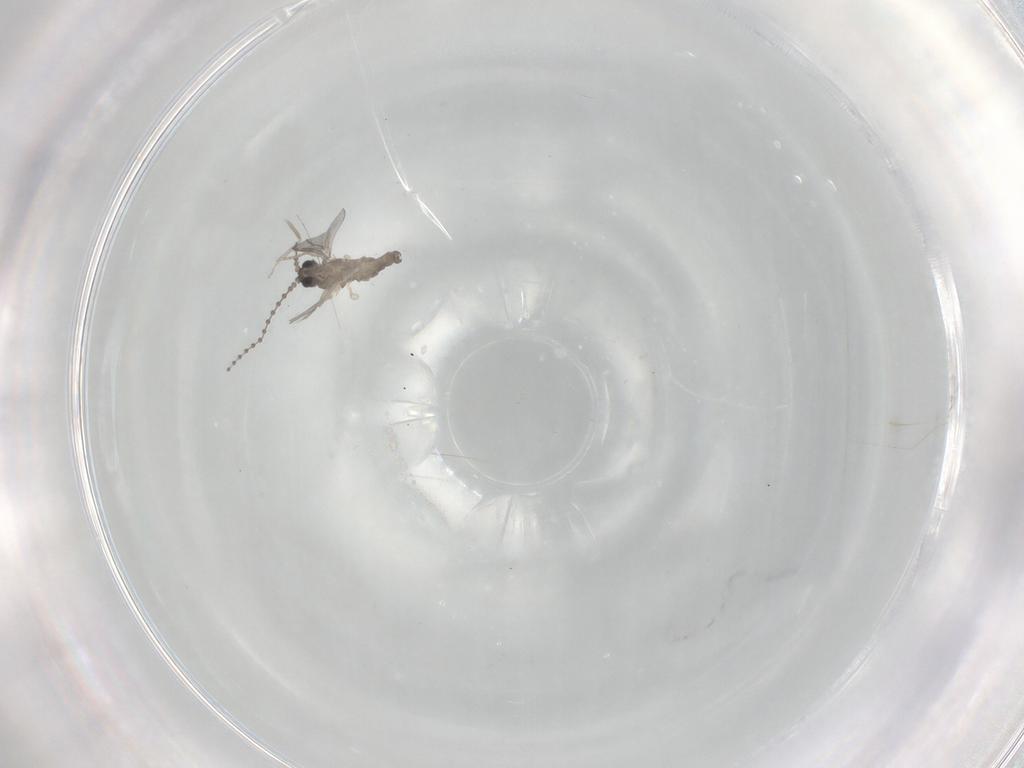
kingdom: Animalia
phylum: Arthropoda
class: Insecta
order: Diptera
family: Cecidomyiidae
